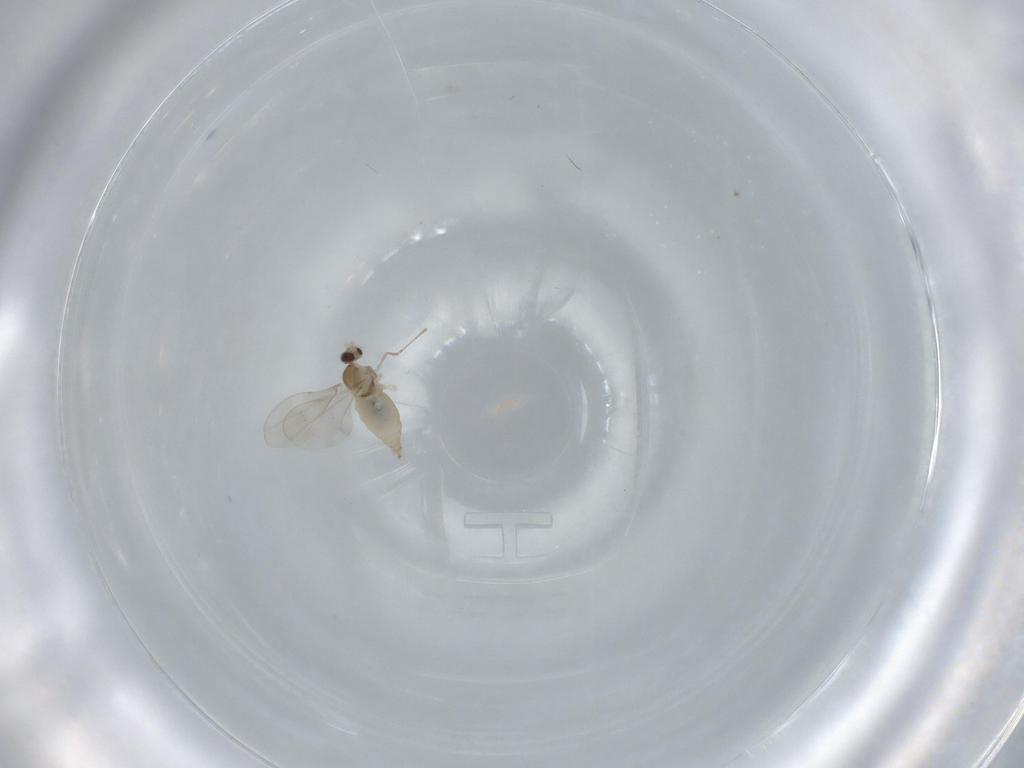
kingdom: Animalia
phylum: Arthropoda
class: Insecta
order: Diptera
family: Cecidomyiidae
